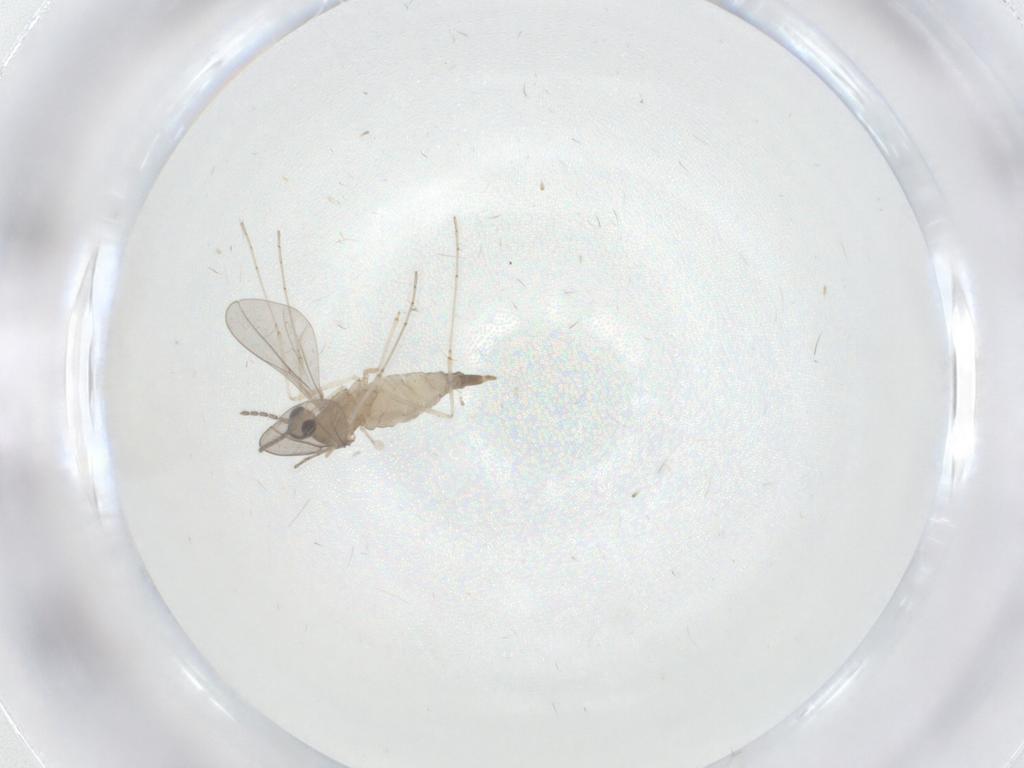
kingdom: Animalia
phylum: Arthropoda
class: Insecta
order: Diptera
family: Cecidomyiidae
